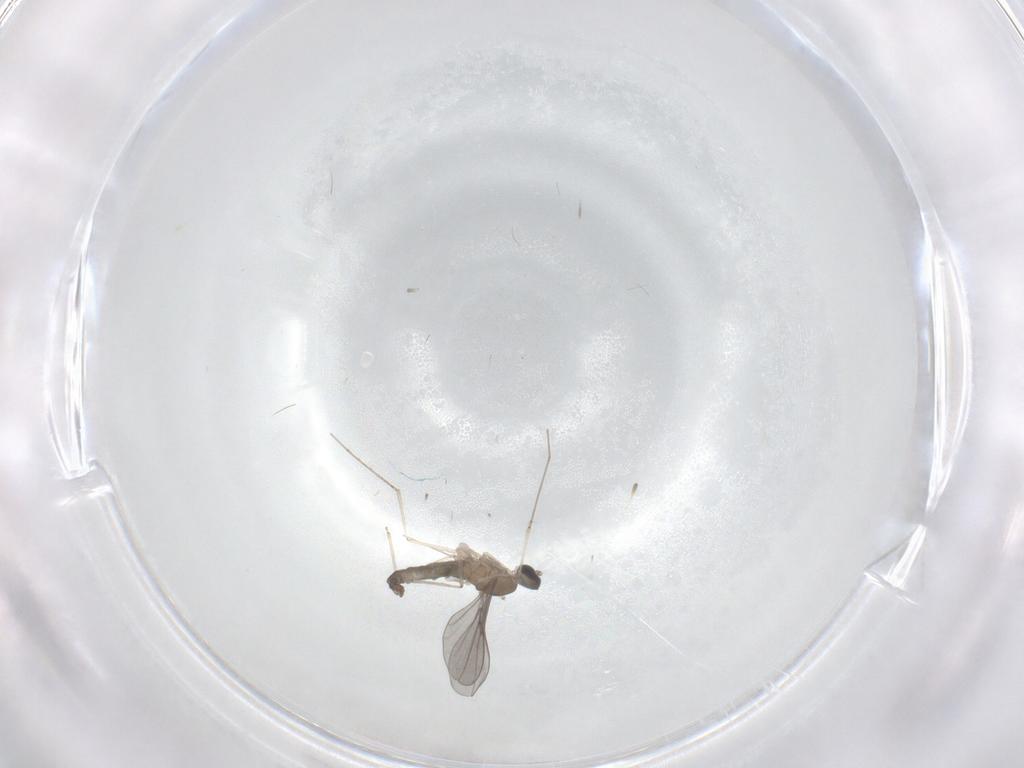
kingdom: Animalia
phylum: Arthropoda
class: Insecta
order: Diptera
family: Cecidomyiidae
